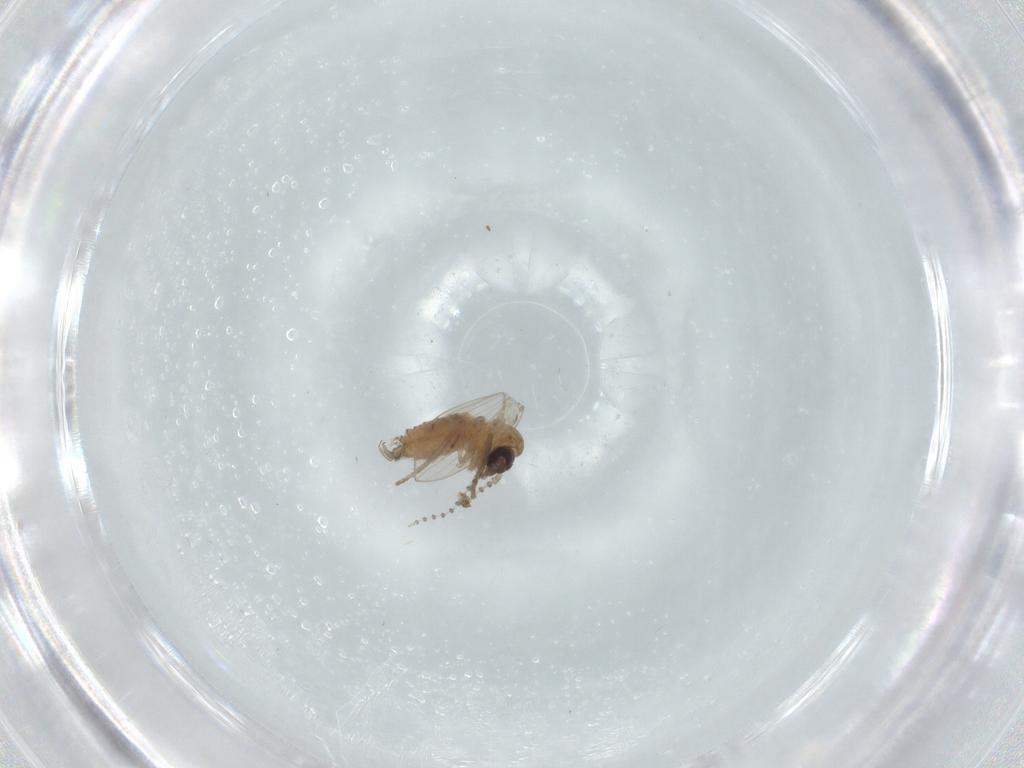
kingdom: Animalia
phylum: Arthropoda
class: Insecta
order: Diptera
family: Psychodidae
